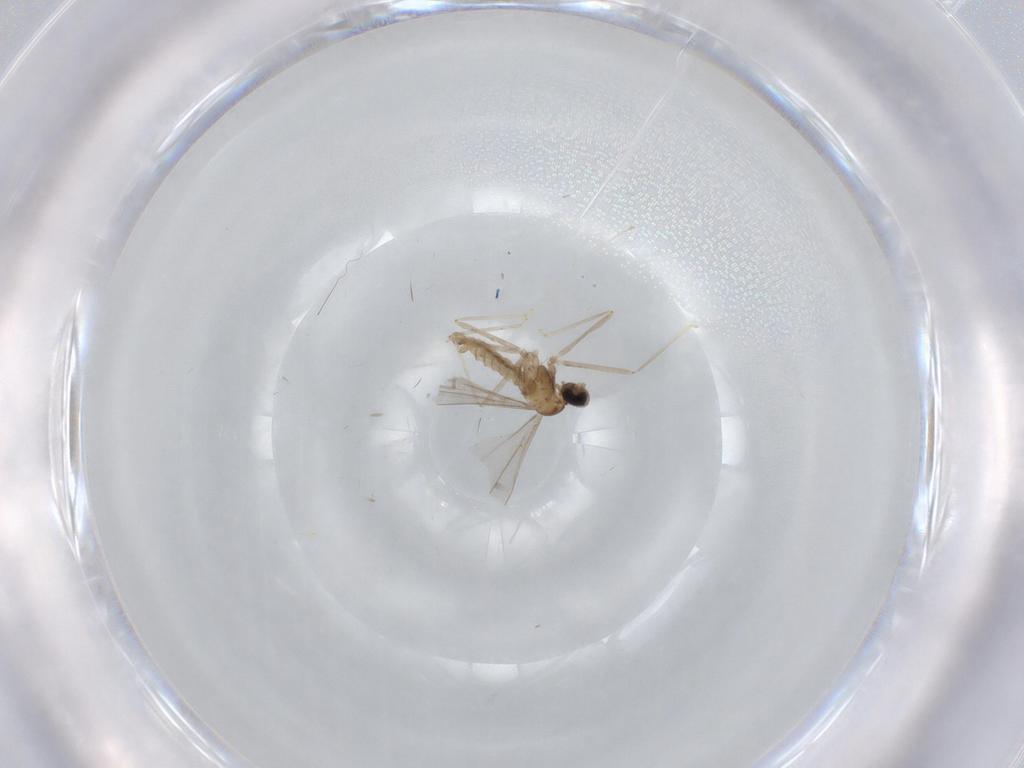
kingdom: Animalia
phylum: Arthropoda
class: Insecta
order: Diptera
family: Cecidomyiidae
